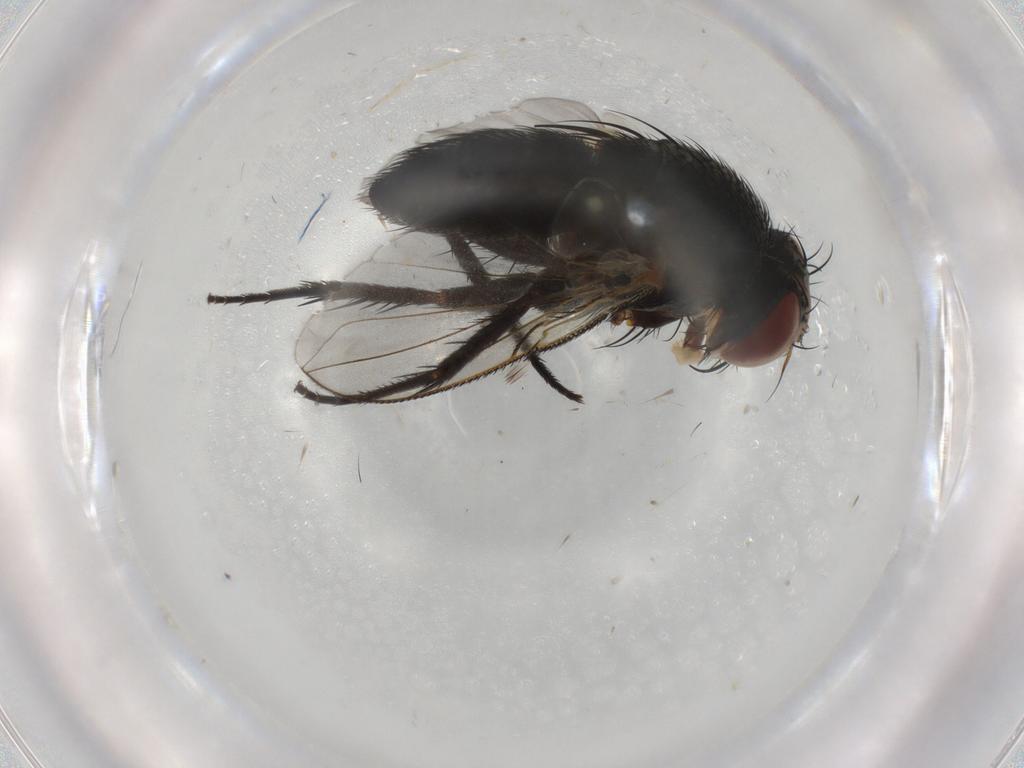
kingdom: Animalia
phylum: Arthropoda
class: Insecta
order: Diptera
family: Tachinidae
